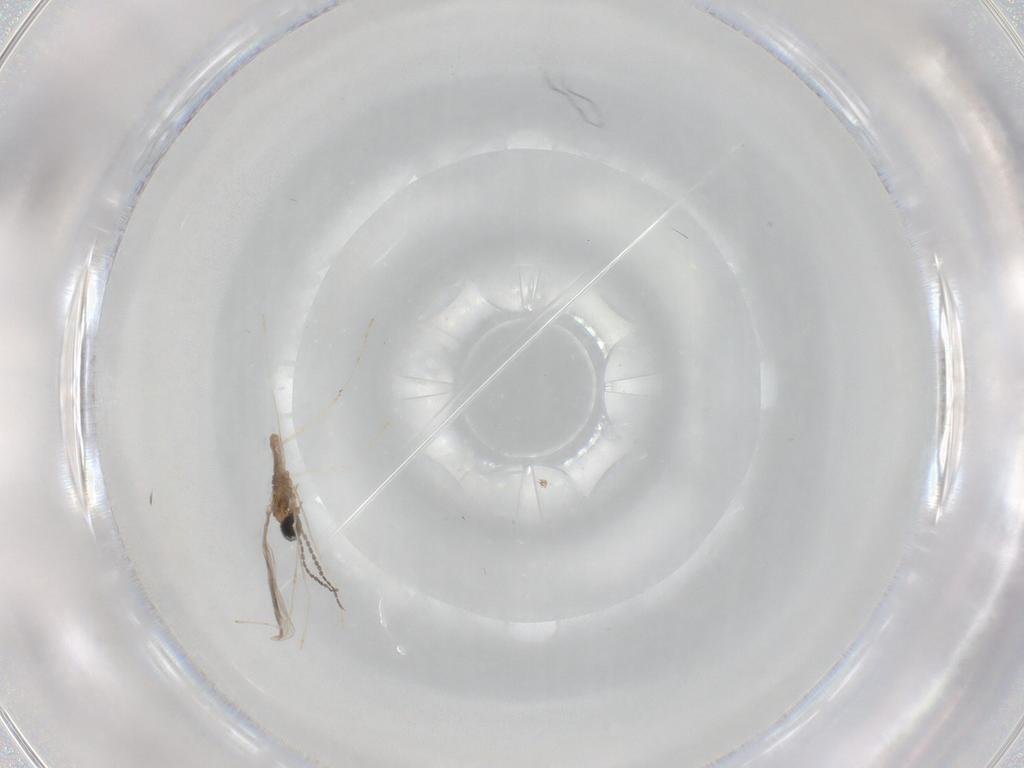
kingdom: Animalia
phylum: Arthropoda
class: Insecta
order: Diptera
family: Cecidomyiidae
